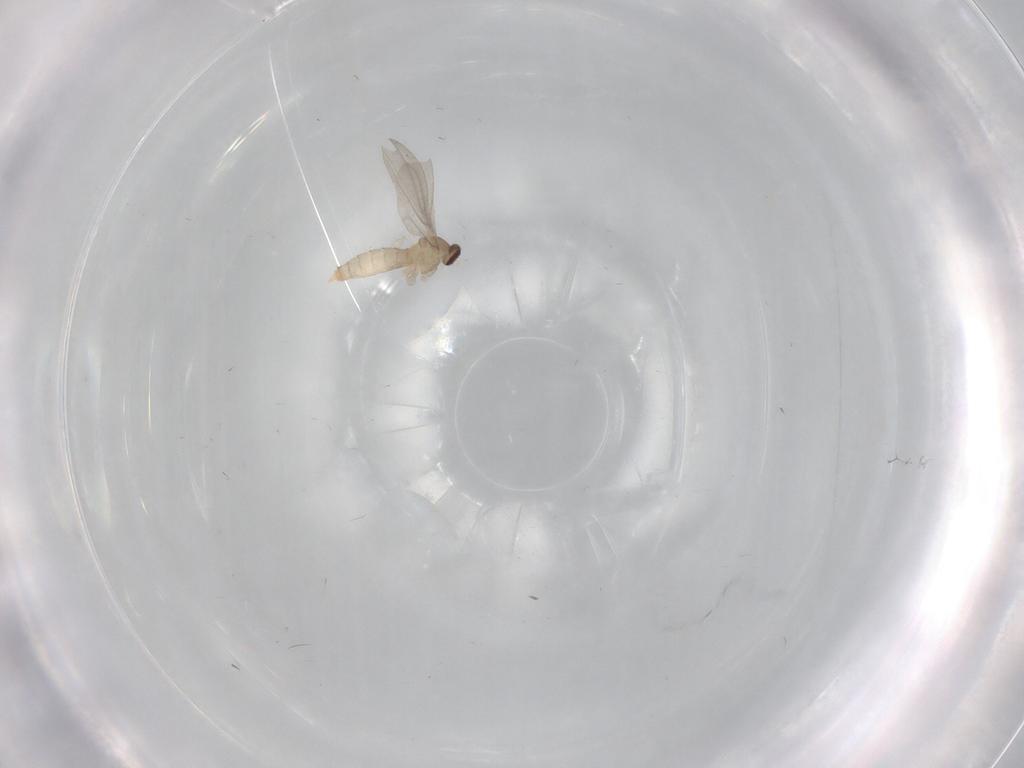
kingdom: Animalia
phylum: Arthropoda
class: Insecta
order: Diptera
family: Cecidomyiidae
